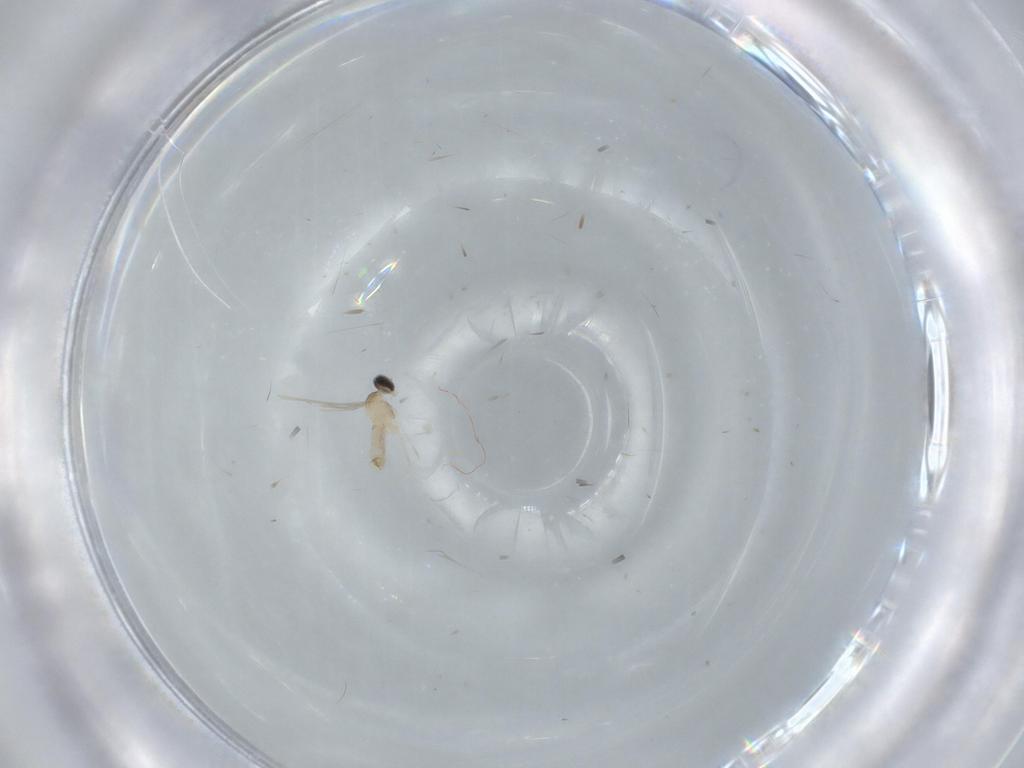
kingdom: Animalia
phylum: Arthropoda
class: Insecta
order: Diptera
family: Cecidomyiidae
